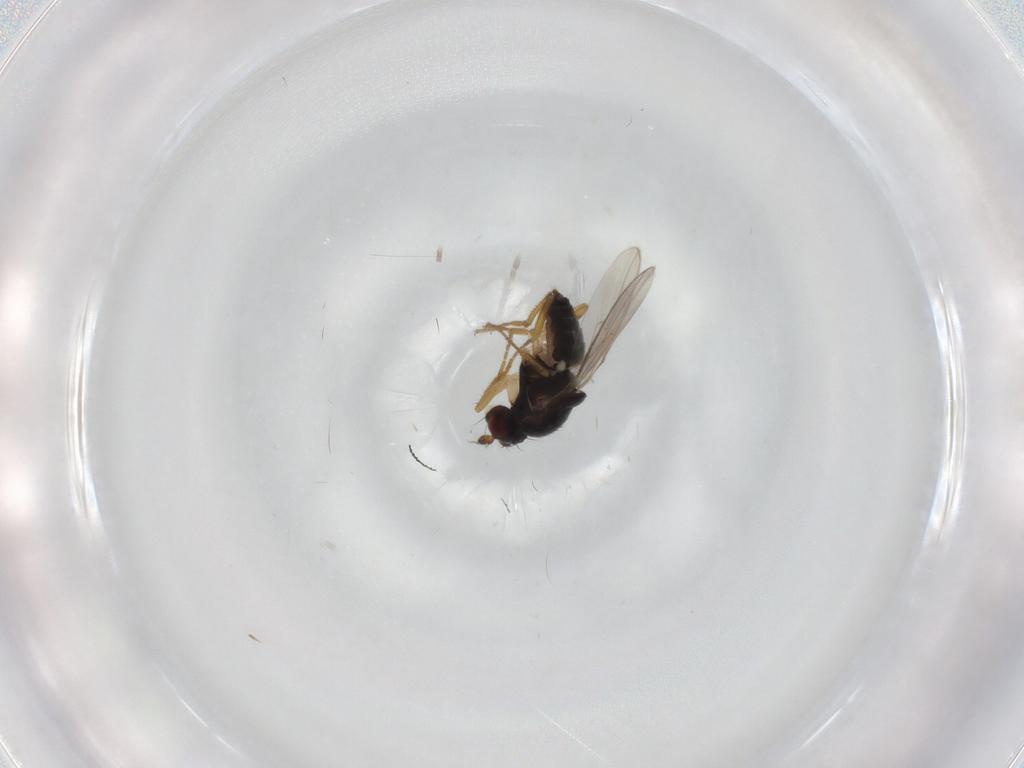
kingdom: Animalia
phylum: Arthropoda
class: Insecta
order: Diptera
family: Sphaeroceridae
